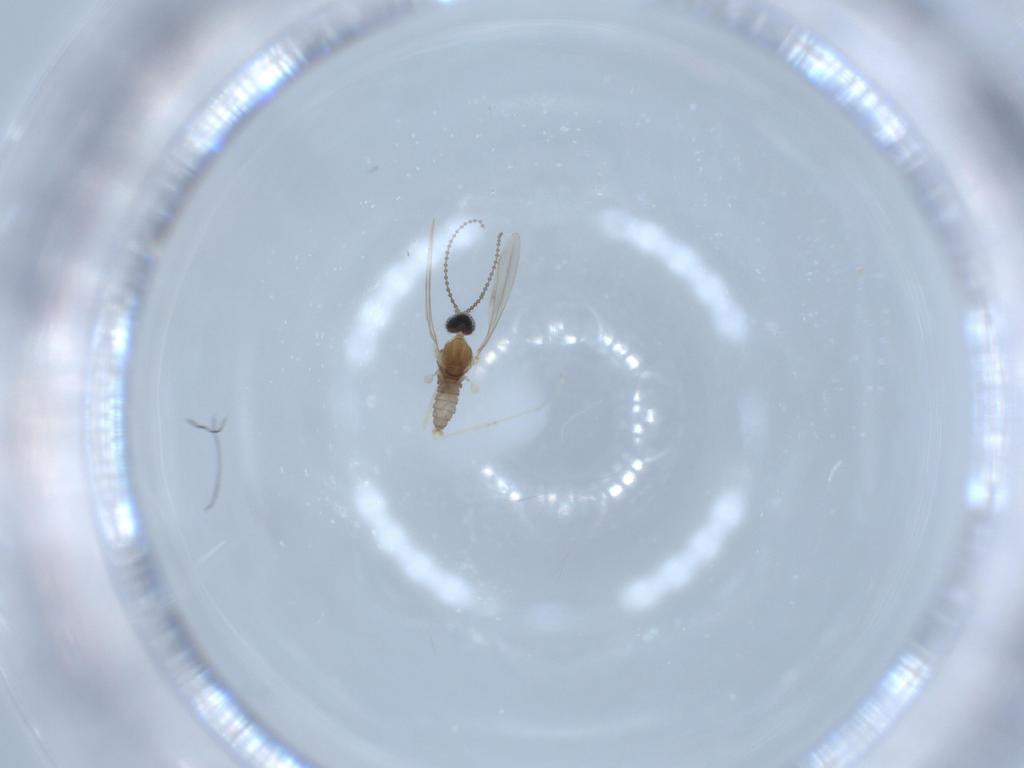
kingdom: Animalia
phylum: Arthropoda
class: Insecta
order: Diptera
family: Cecidomyiidae
